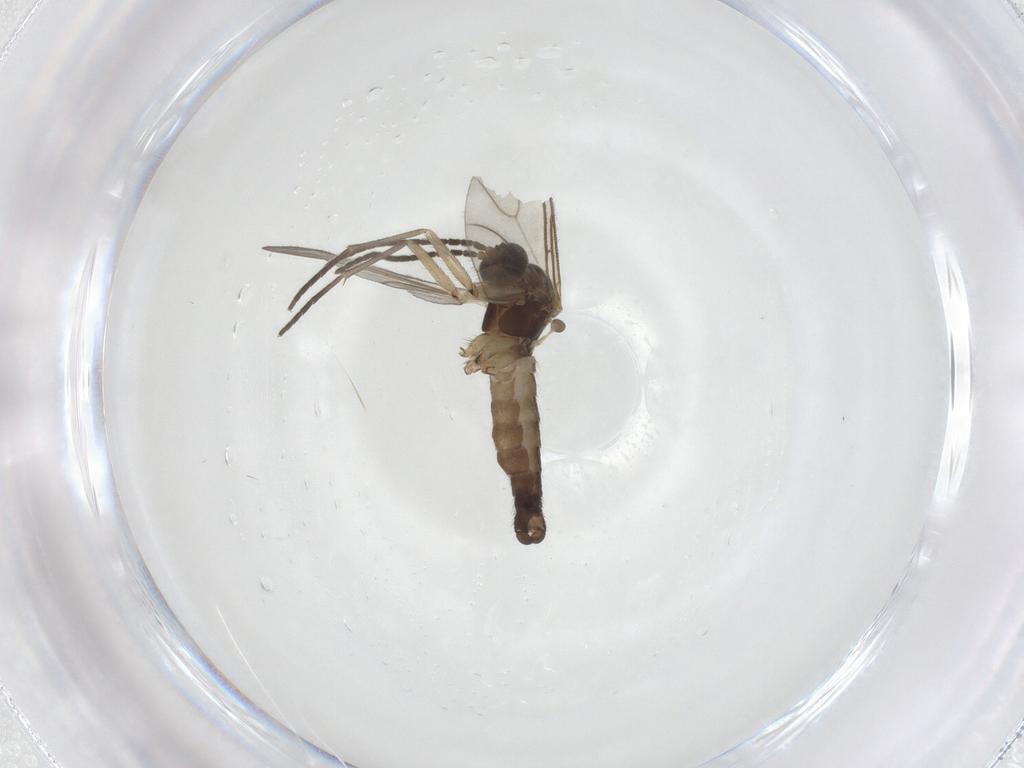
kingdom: Animalia
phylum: Arthropoda
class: Insecta
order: Diptera
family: Sciaridae
